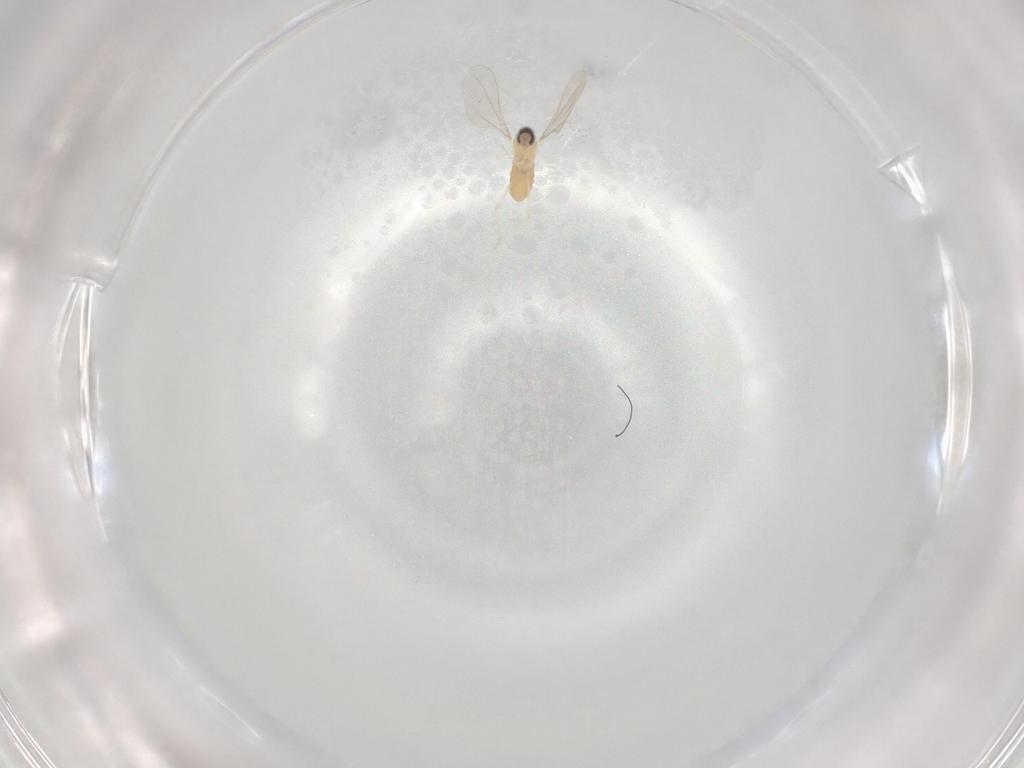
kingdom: Animalia
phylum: Arthropoda
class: Insecta
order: Diptera
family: Cecidomyiidae
